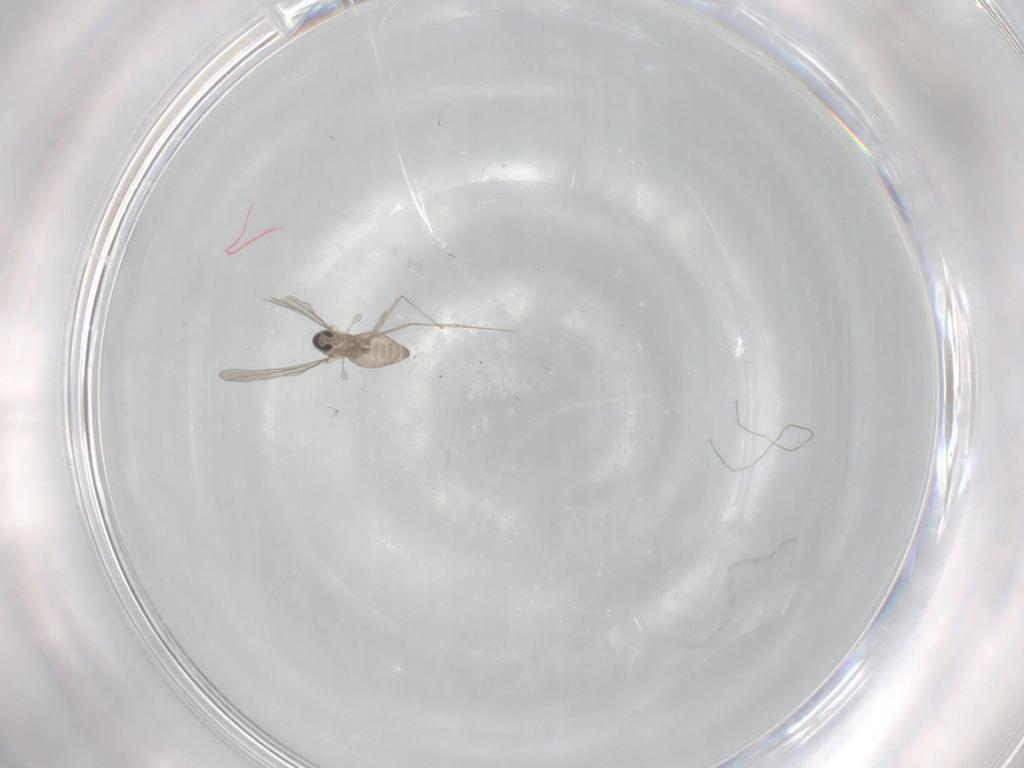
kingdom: Animalia
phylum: Arthropoda
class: Insecta
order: Diptera
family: Cecidomyiidae
